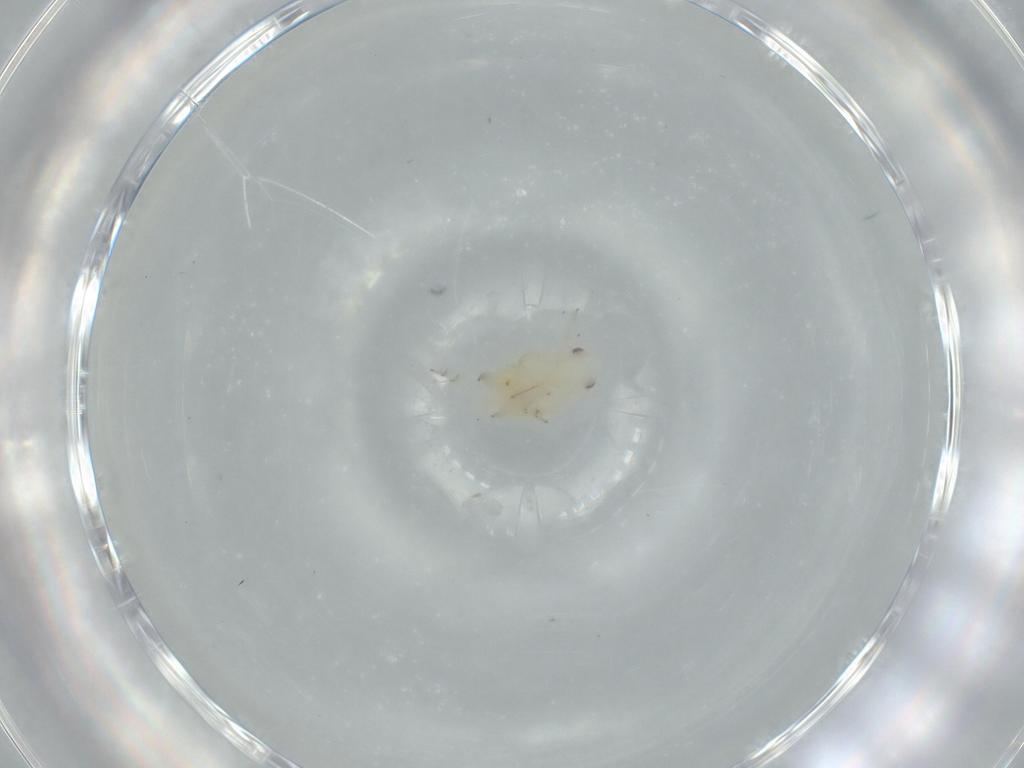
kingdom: Animalia
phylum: Arthropoda
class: Insecta
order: Hemiptera
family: Flatidae
